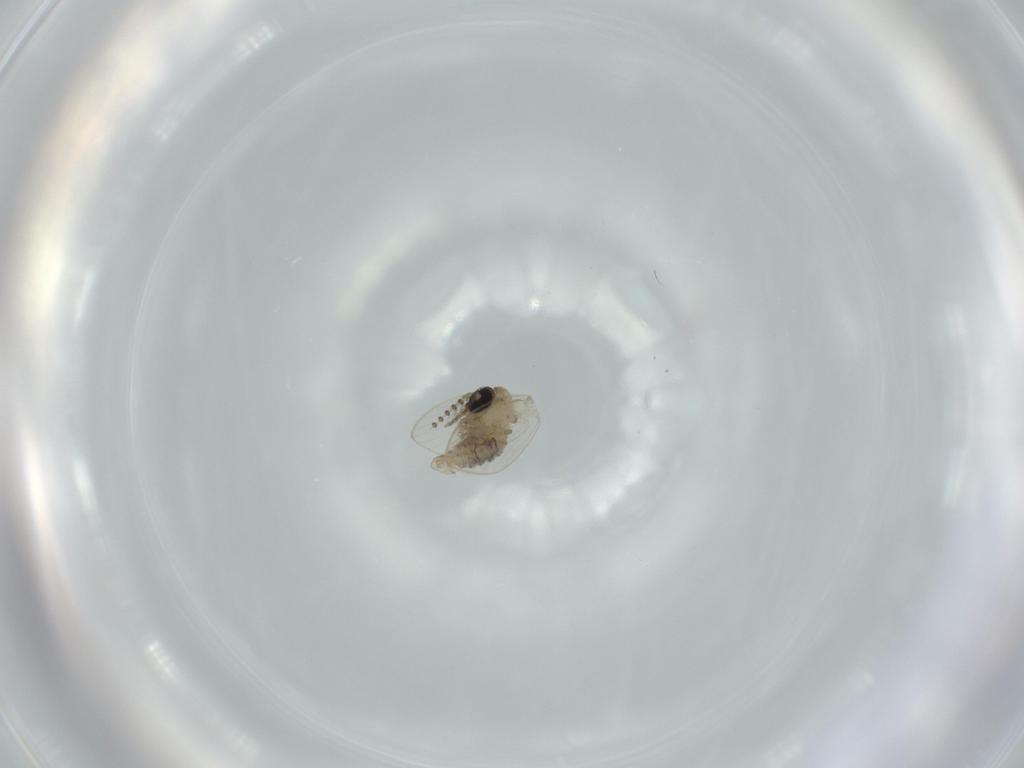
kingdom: Animalia
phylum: Arthropoda
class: Insecta
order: Diptera
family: Psychodidae
